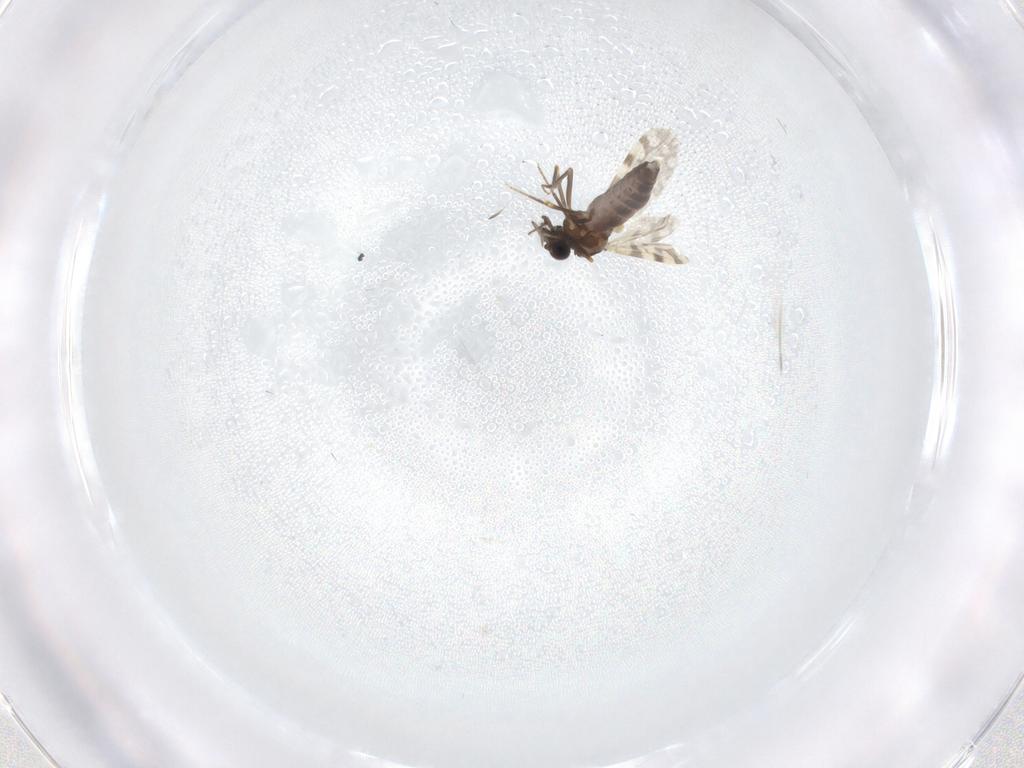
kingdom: Animalia
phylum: Arthropoda
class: Insecta
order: Diptera
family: Ceratopogonidae
